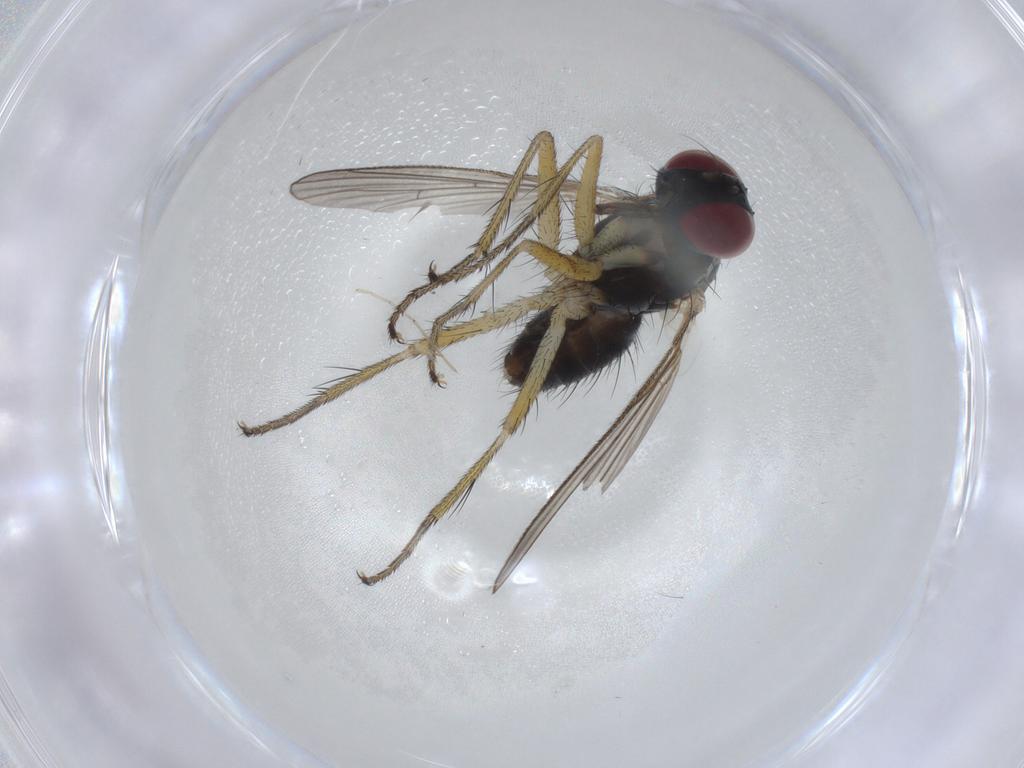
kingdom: Animalia
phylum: Arthropoda
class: Insecta
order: Diptera
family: Muscidae
